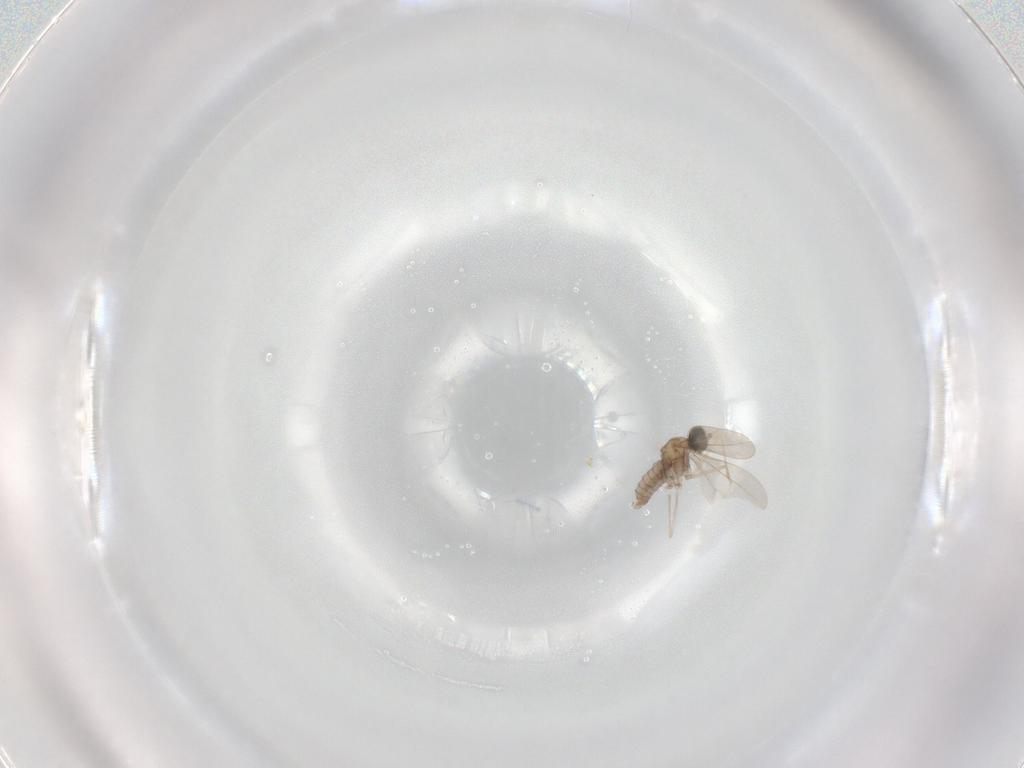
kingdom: Animalia
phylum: Arthropoda
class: Insecta
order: Diptera
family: Cecidomyiidae
